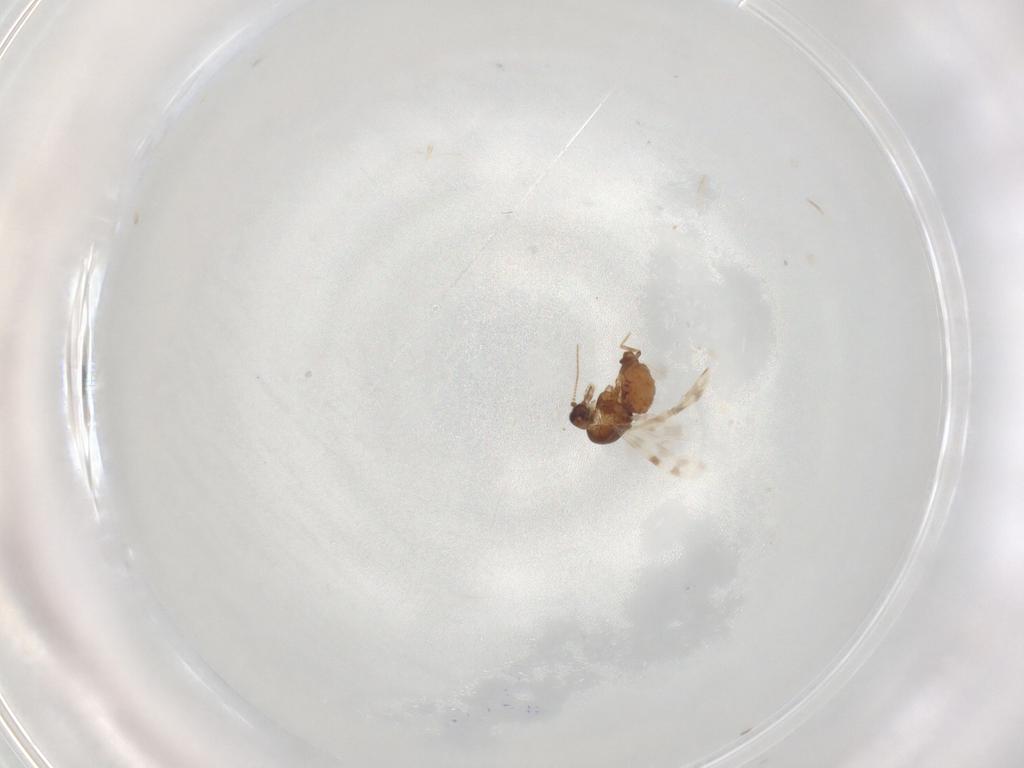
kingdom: Animalia
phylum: Arthropoda
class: Insecta
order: Diptera
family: Ceratopogonidae
